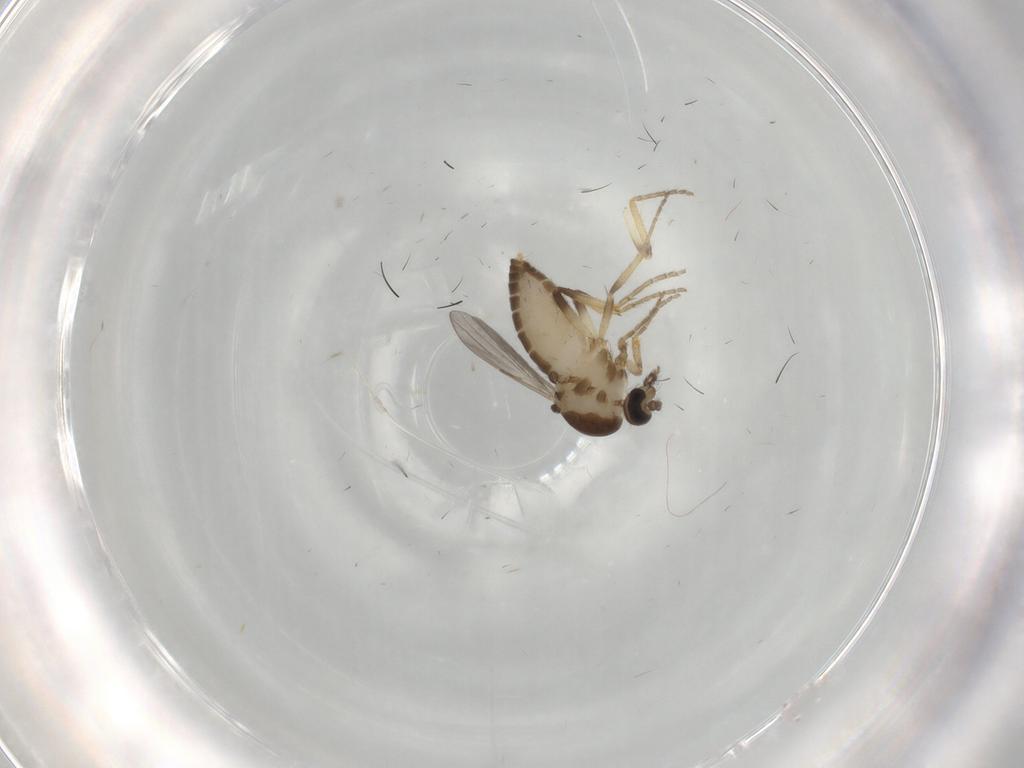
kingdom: Animalia
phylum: Arthropoda
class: Insecta
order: Diptera
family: Ceratopogonidae
